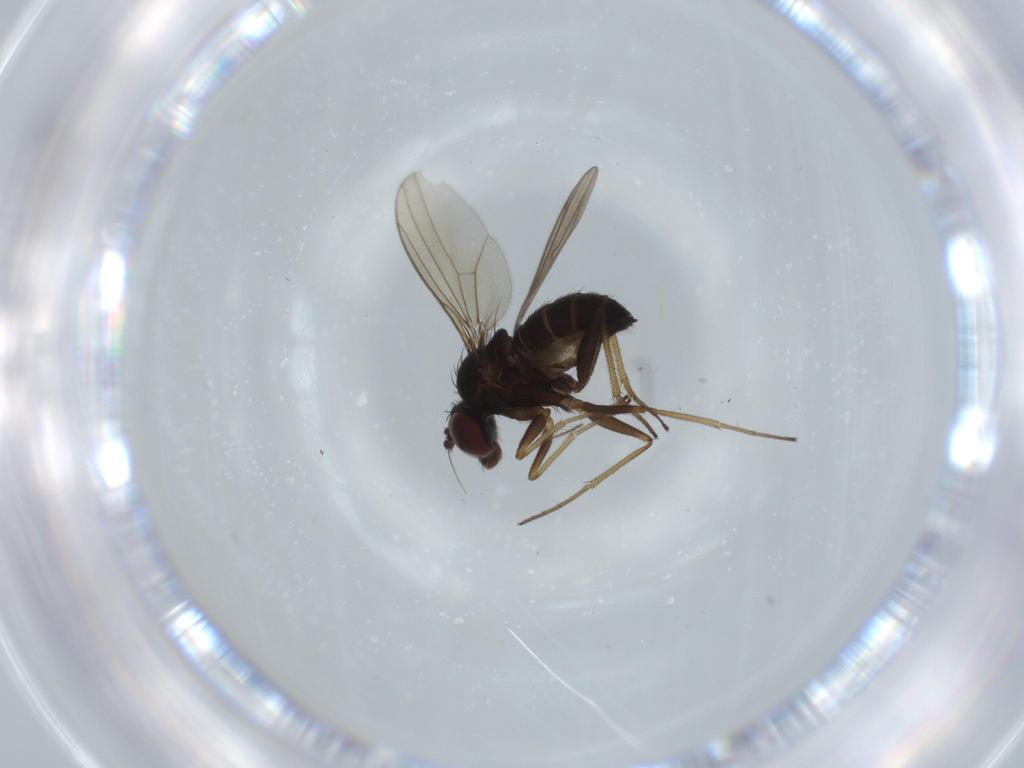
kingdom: Animalia
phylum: Arthropoda
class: Insecta
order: Diptera
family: Dolichopodidae
